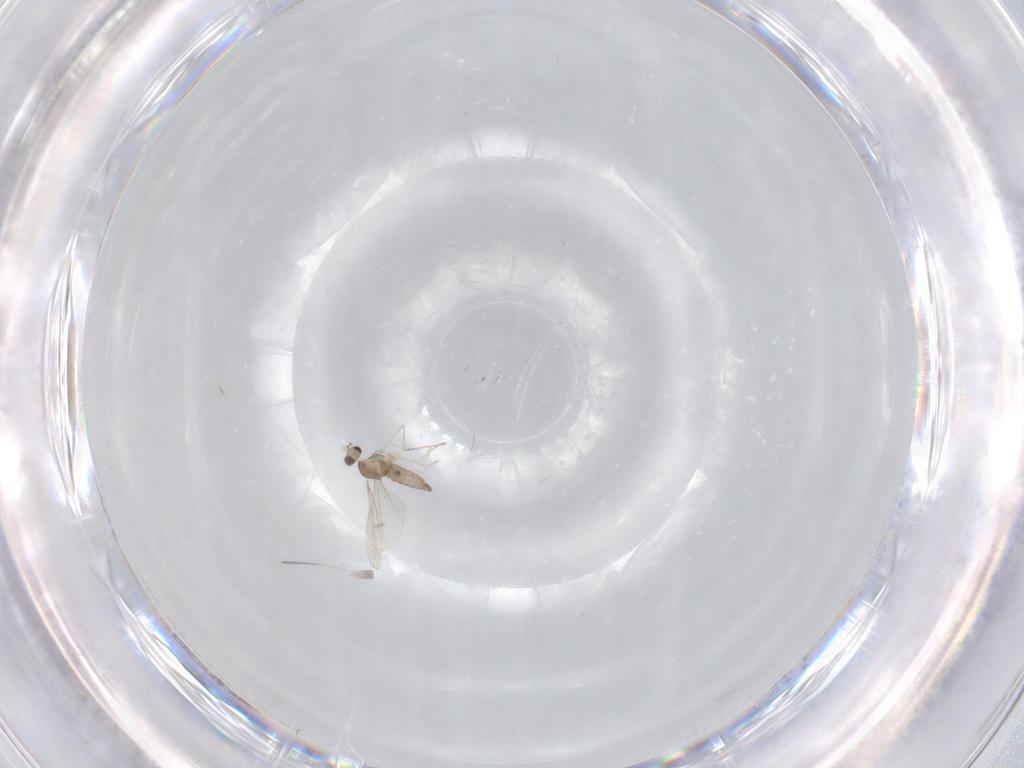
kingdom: Animalia
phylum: Arthropoda
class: Insecta
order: Diptera
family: Cecidomyiidae
